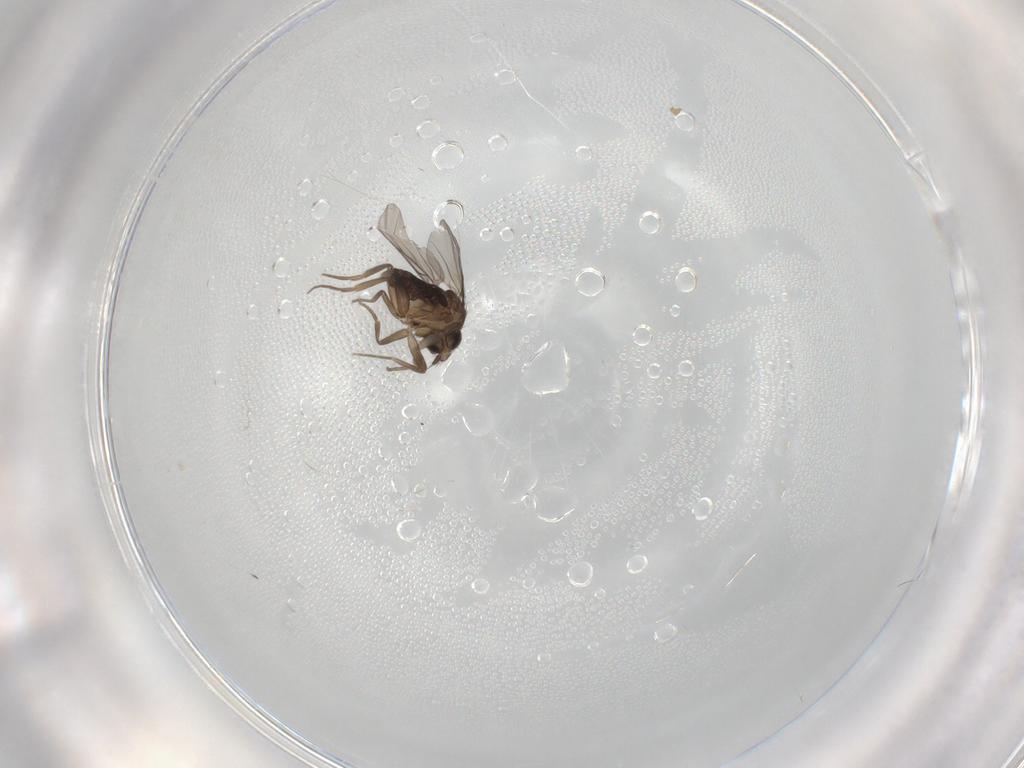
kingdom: Animalia
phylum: Arthropoda
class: Insecta
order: Diptera
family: Phoridae
